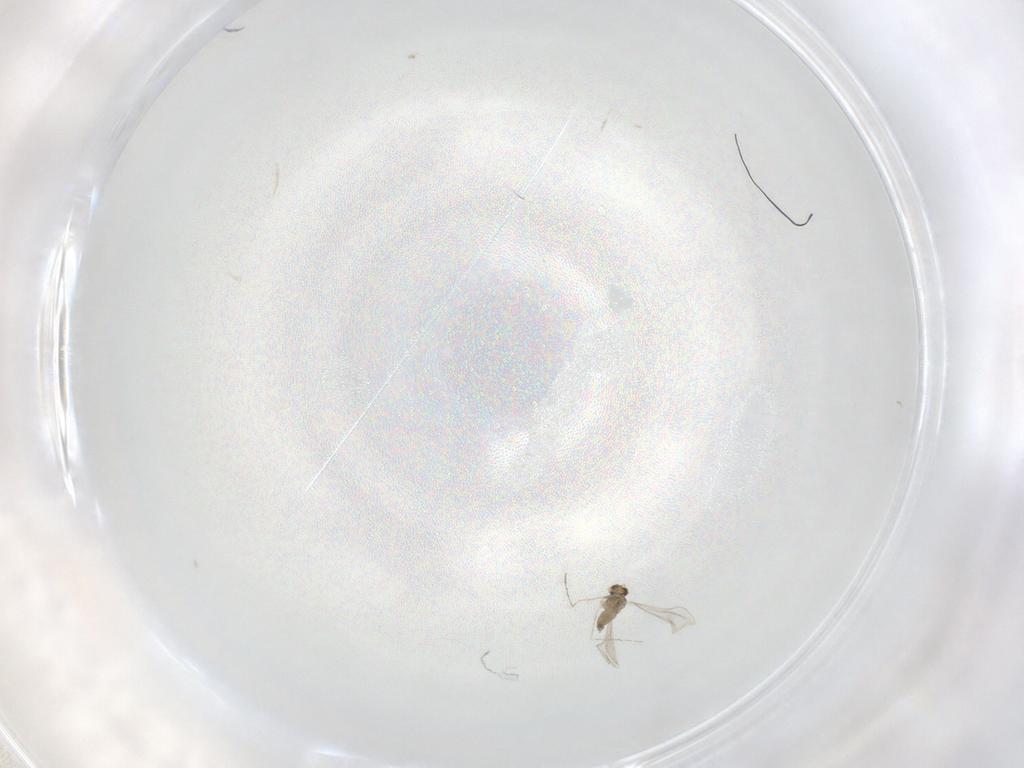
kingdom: Animalia
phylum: Arthropoda
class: Insecta
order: Diptera
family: Cecidomyiidae
